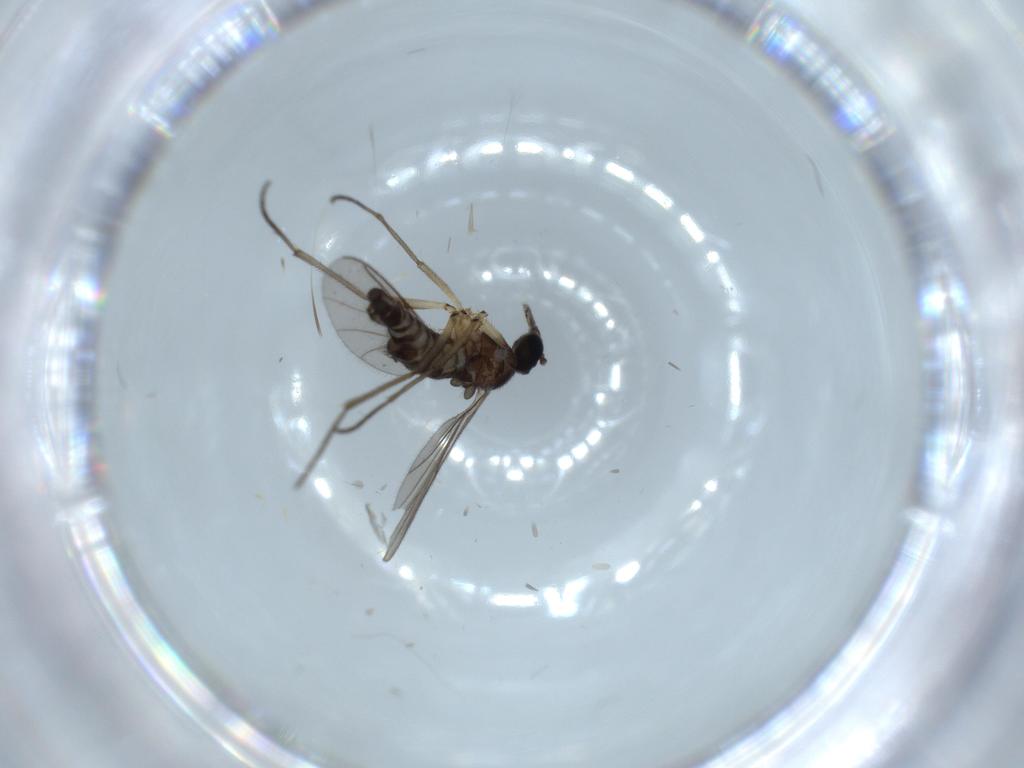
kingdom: Animalia
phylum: Arthropoda
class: Insecta
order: Diptera
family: Sciaridae
